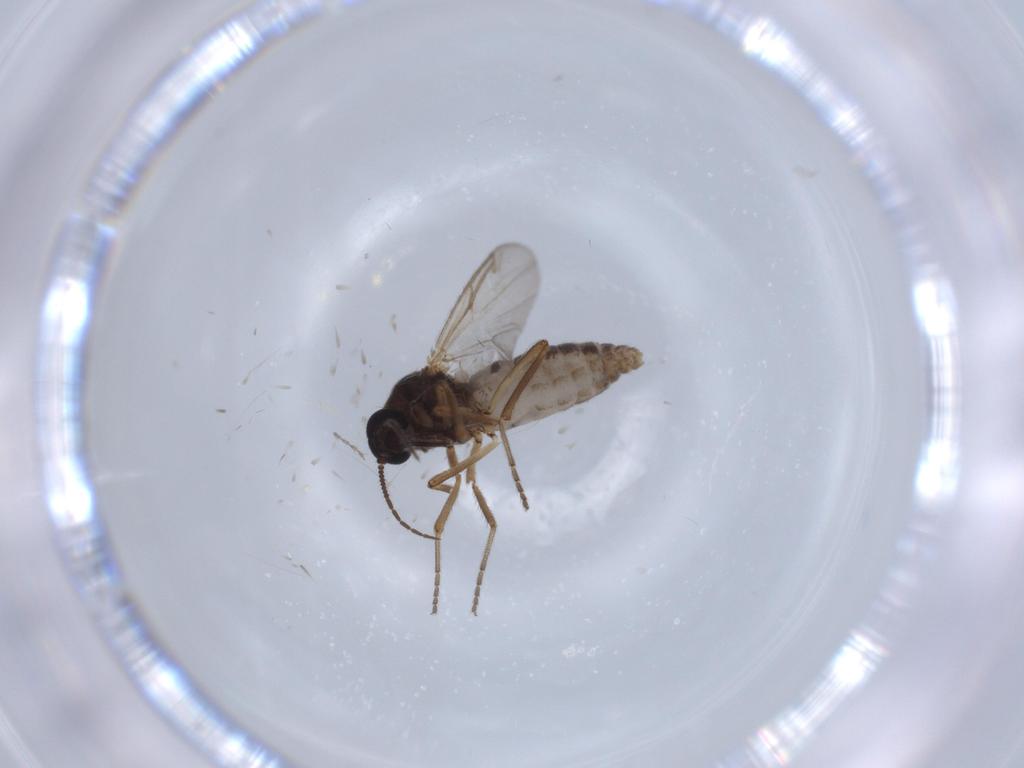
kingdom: Animalia
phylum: Arthropoda
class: Insecta
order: Diptera
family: Ceratopogonidae
